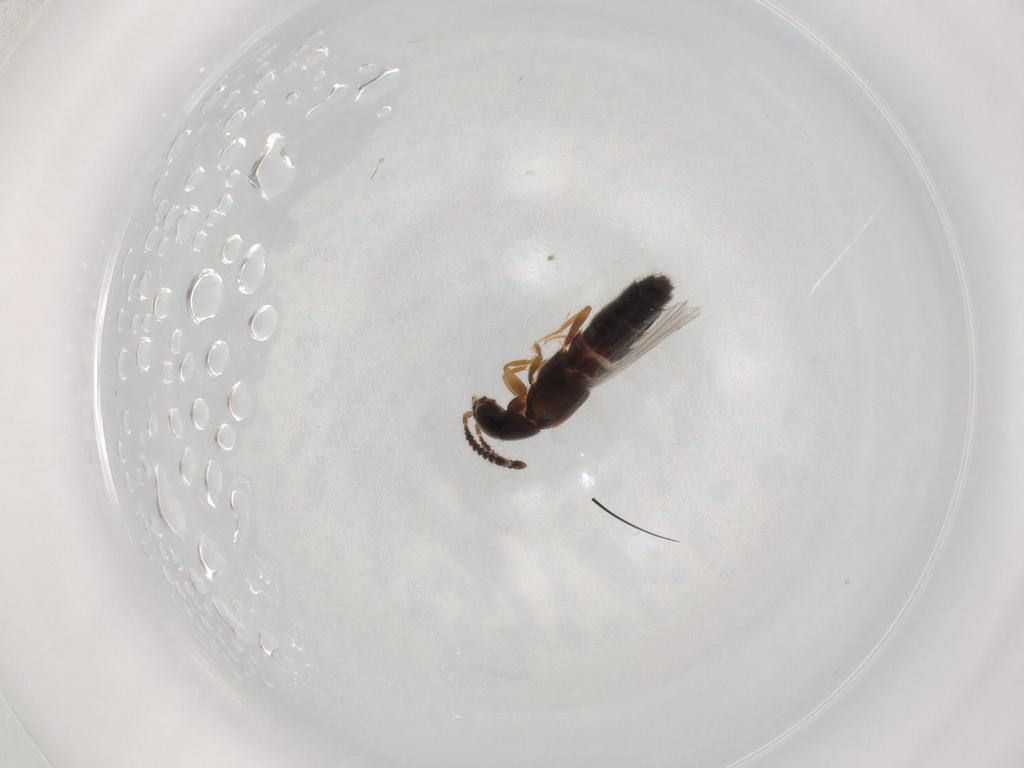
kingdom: Animalia
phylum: Arthropoda
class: Insecta
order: Coleoptera
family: Staphylinidae
